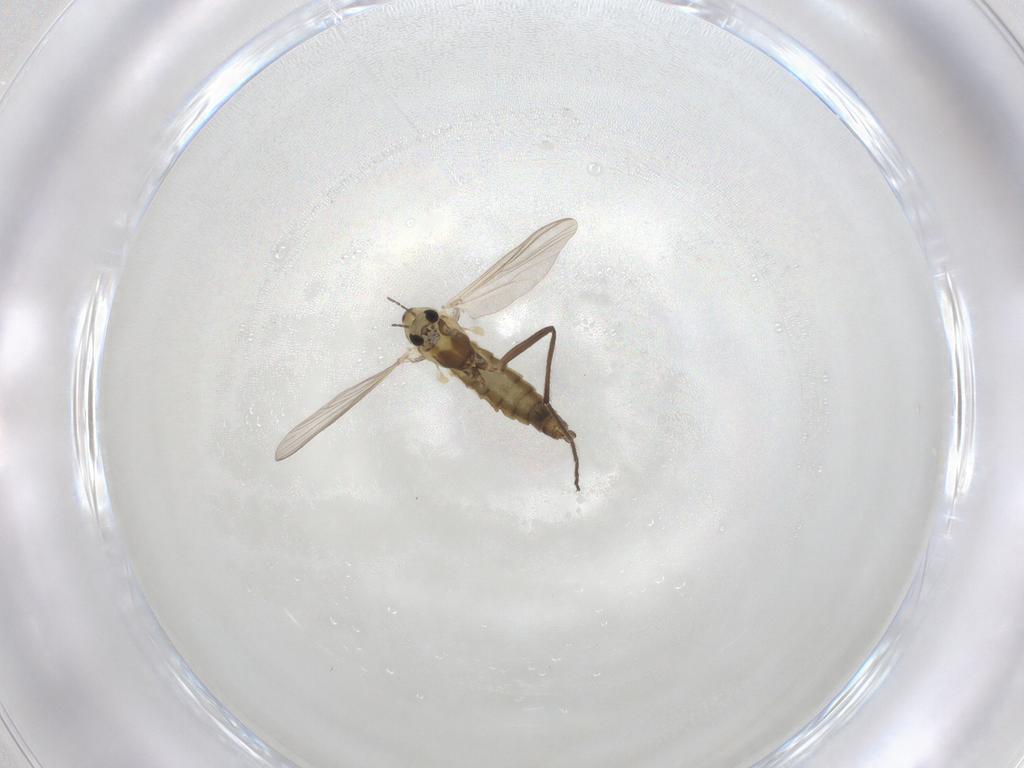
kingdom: Animalia
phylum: Arthropoda
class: Insecta
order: Diptera
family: Chironomidae
